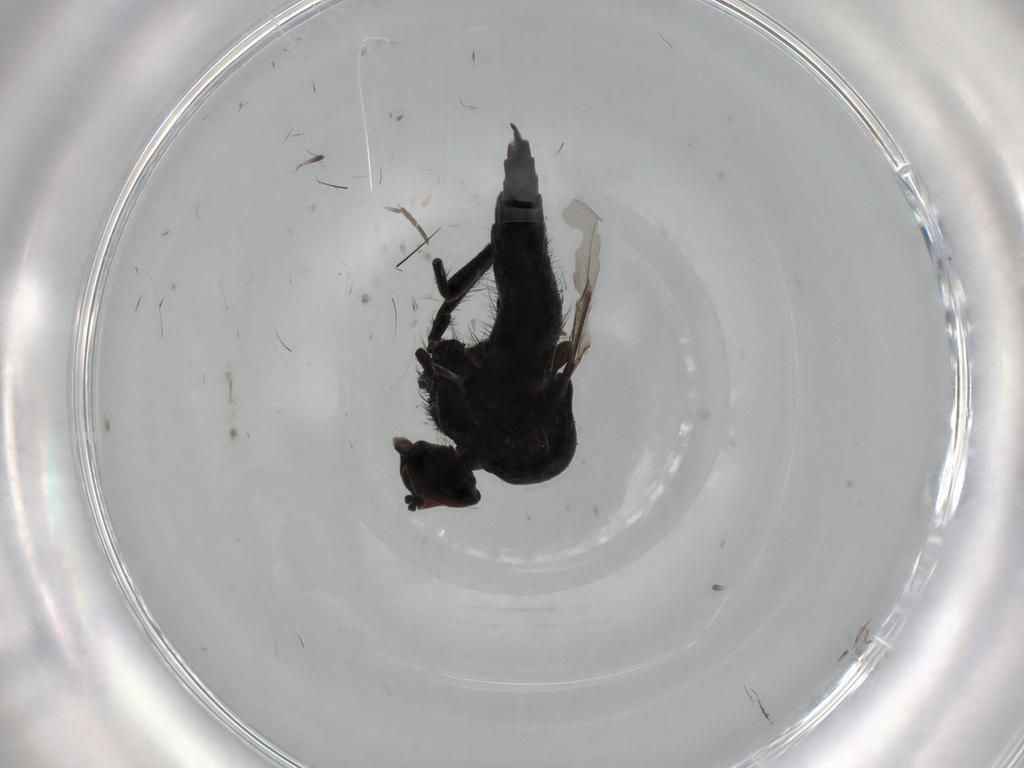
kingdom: Animalia
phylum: Arthropoda
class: Insecta
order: Diptera
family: Hybotidae
